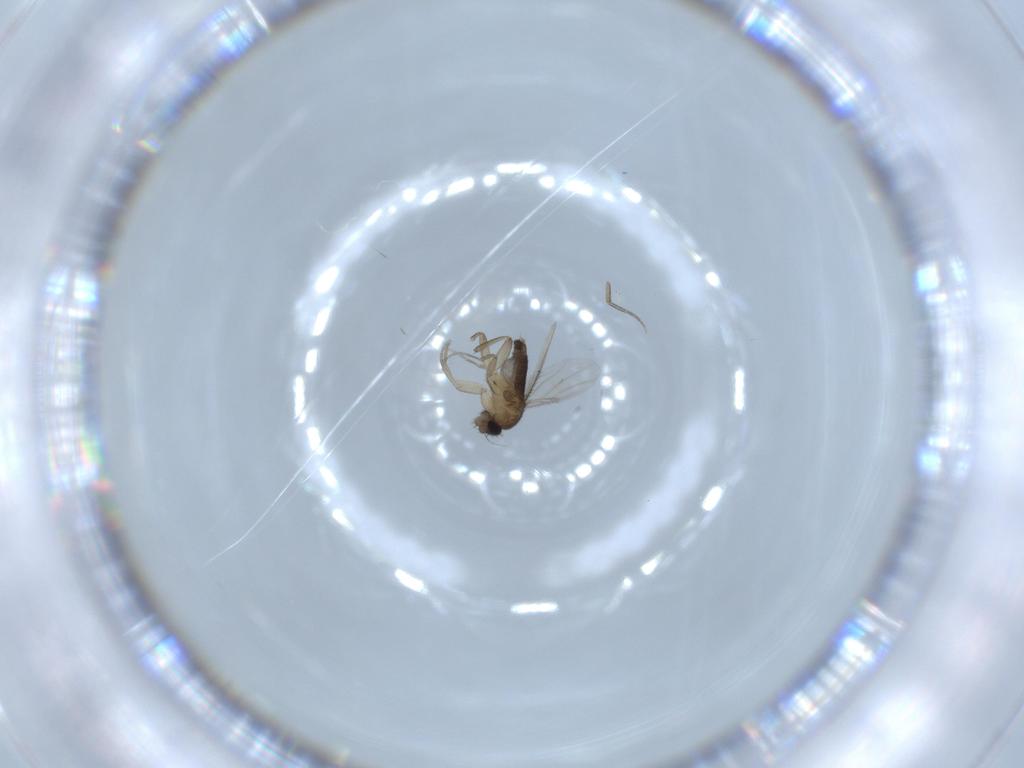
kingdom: Animalia
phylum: Arthropoda
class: Insecta
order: Diptera
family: Phoridae
